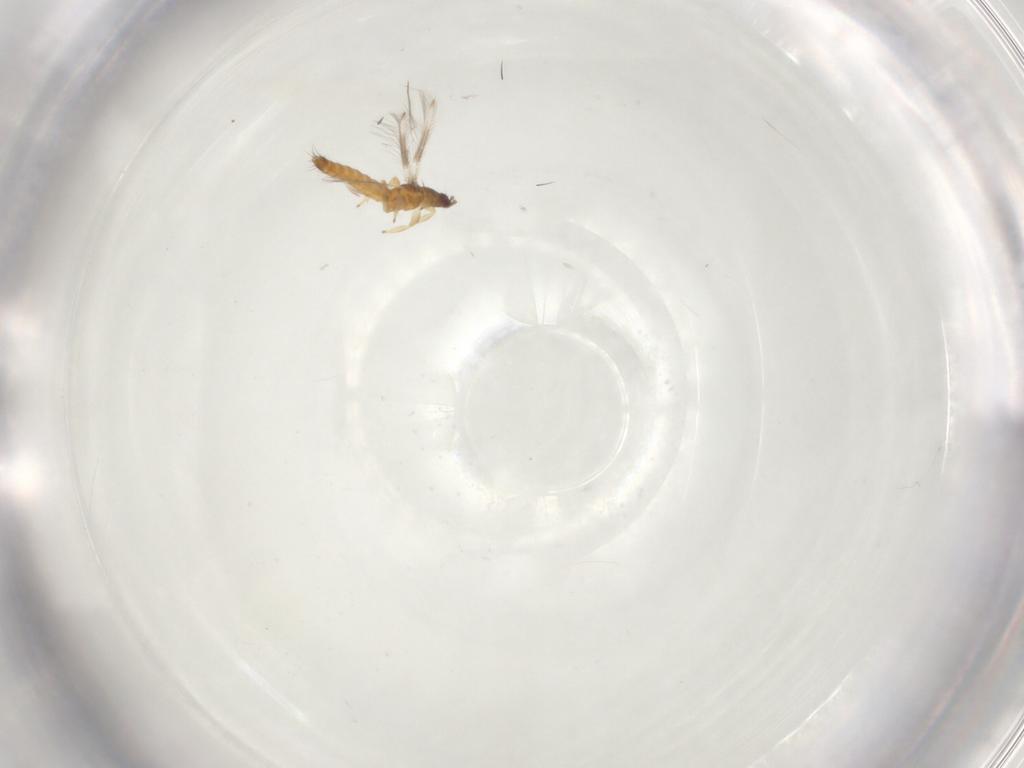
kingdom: Animalia
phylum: Arthropoda
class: Insecta
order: Thysanoptera
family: Thripidae
